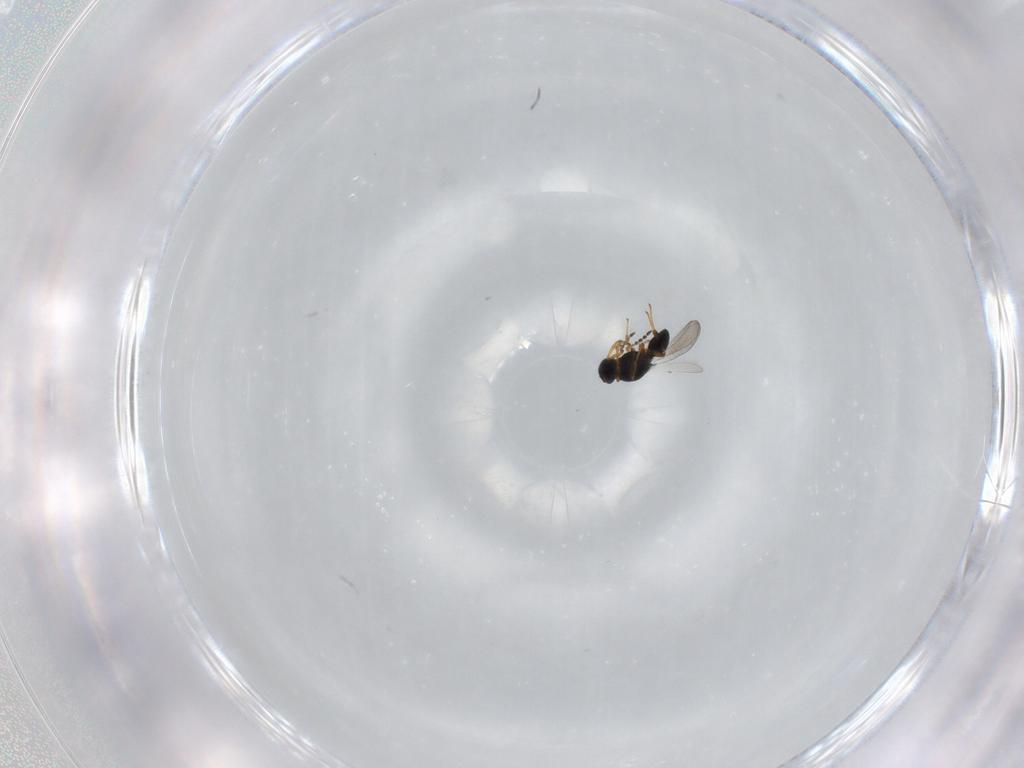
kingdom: Animalia
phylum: Arthropoda
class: Insecta
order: Hymenoptera
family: Platygastridae
